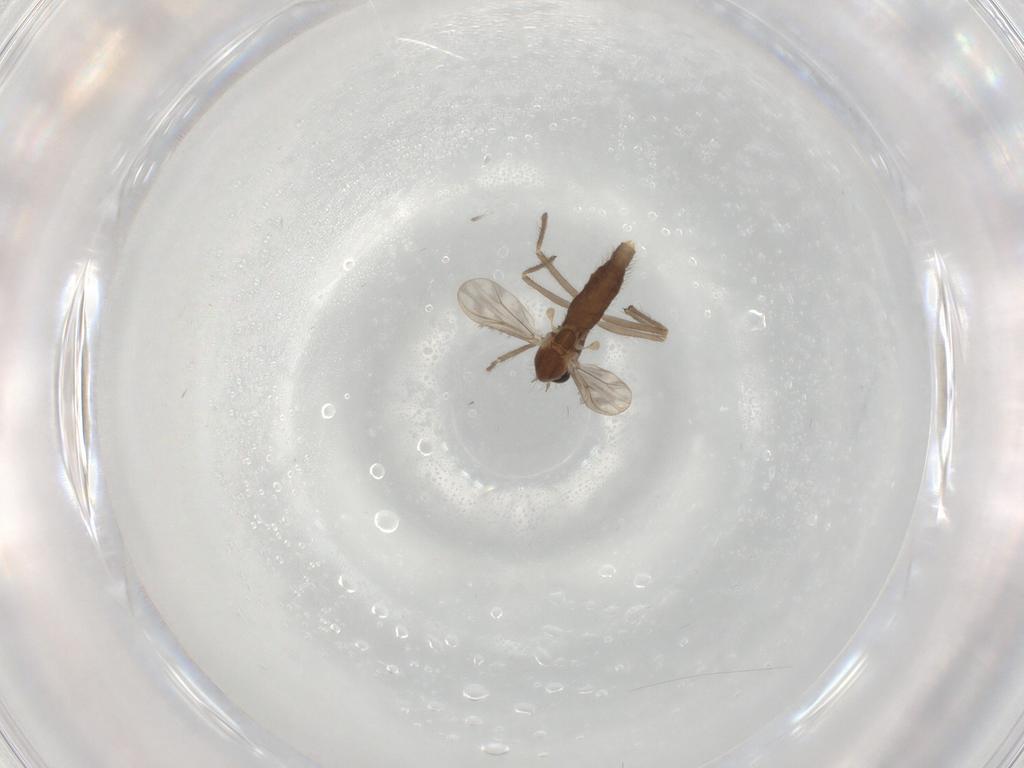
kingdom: Animalia
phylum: Arthropoda
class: Insecta
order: Diptera
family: Chironomidae
